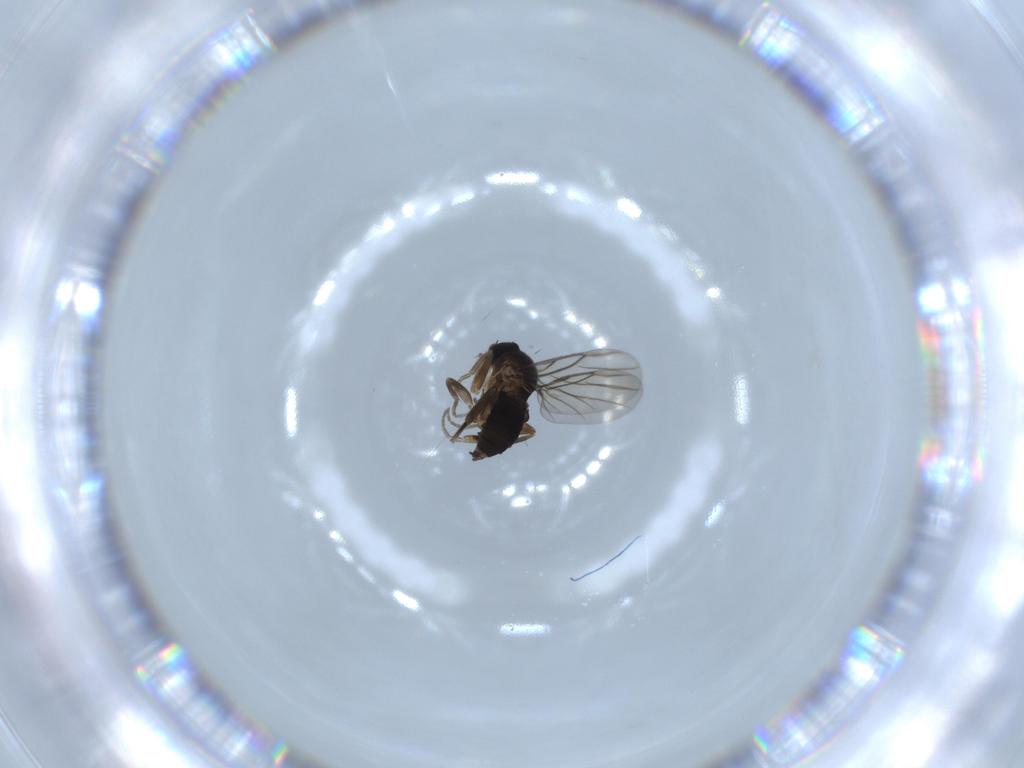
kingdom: Animalia
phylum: Arthropoda
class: Insecta
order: Diptera
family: Phoridae
